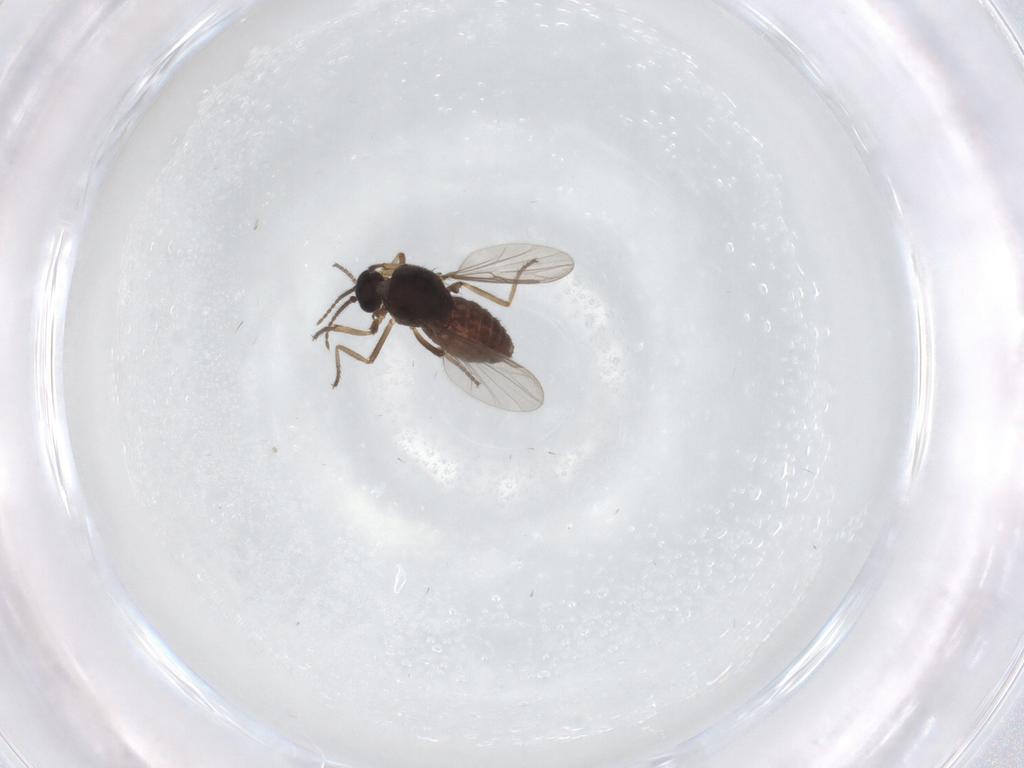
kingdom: Animalia
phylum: Arthropoda
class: Insecta
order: Diptera
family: Ceratopogonidae
